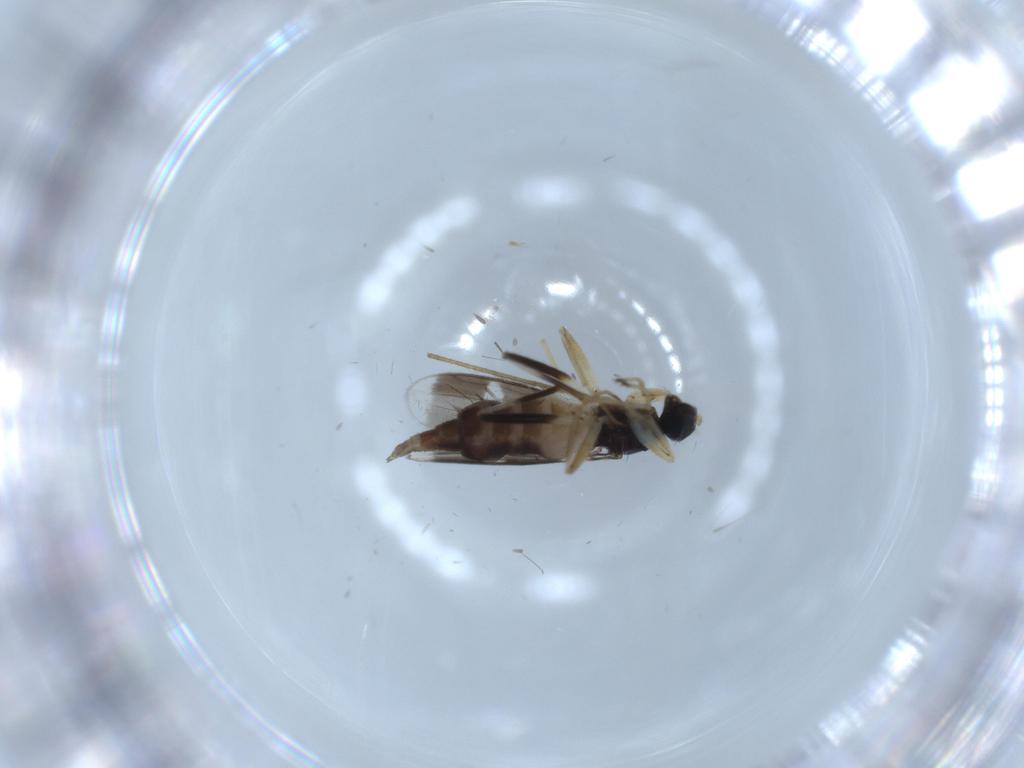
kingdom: Animalia
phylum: Arthropoda
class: Insecta
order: Diptera
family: Hybotidae
